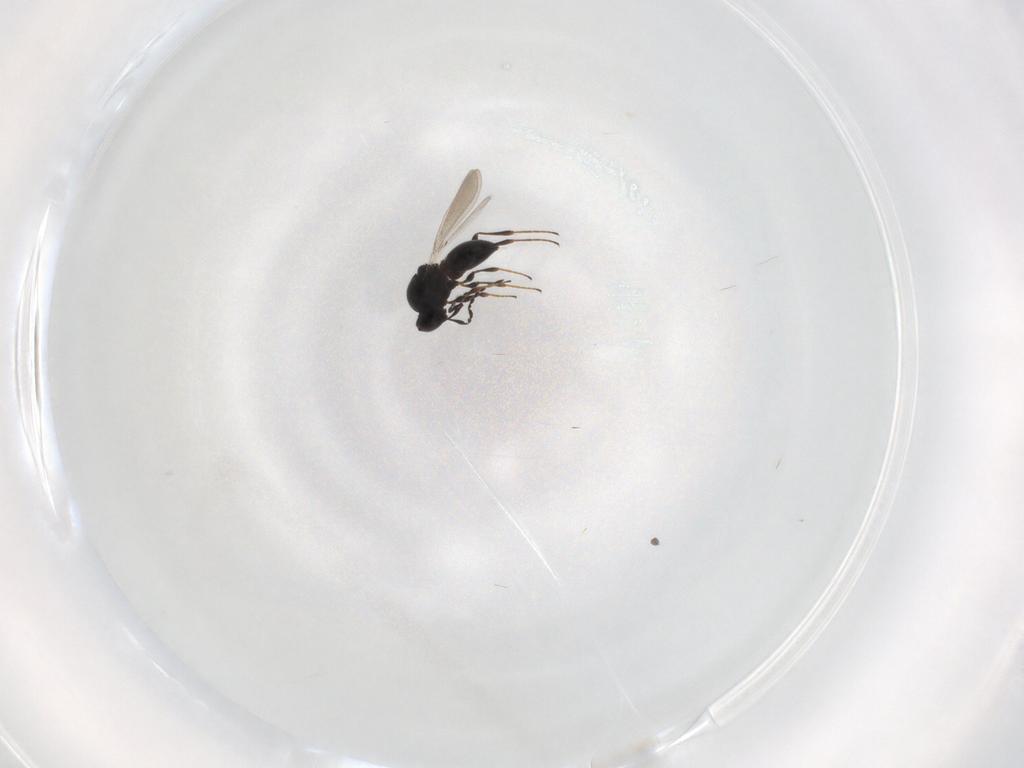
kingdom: Animalia
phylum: Arthropoda
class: Insecta
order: Hymenoptera
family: Platygastridae
